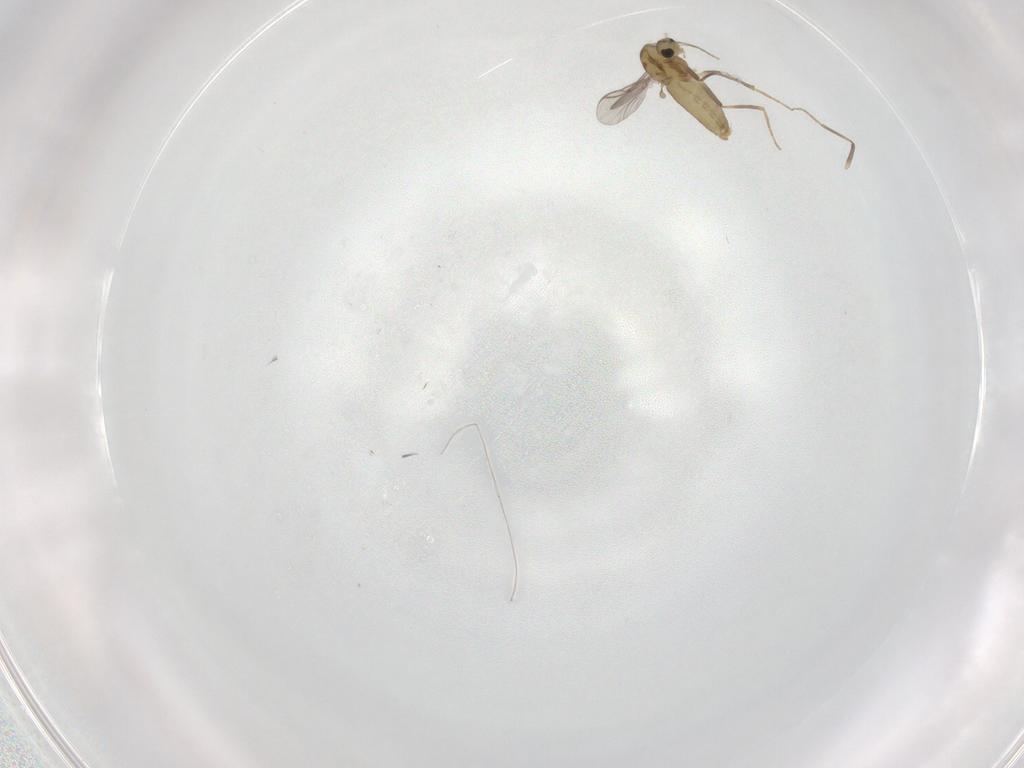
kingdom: Animalia
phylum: Arthropoda
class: Insecta
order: Diptera
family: Chironomidae
